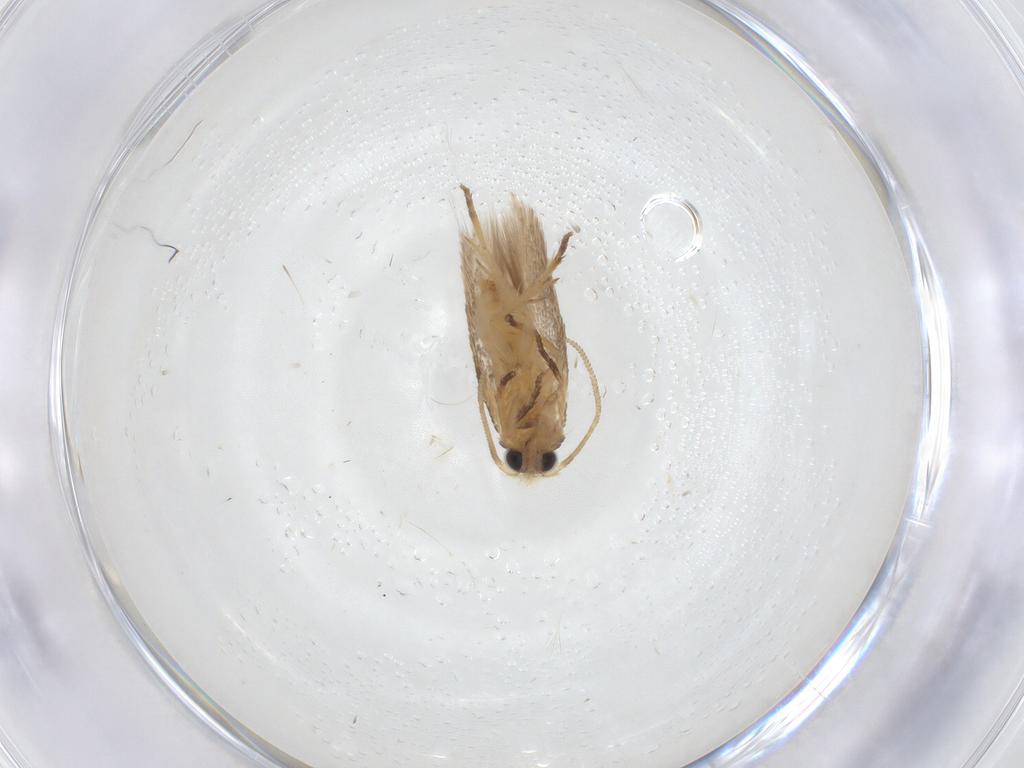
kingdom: Animalia
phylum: Arthropoda
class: Insecta
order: Lepidoptera
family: Nepticulidae
